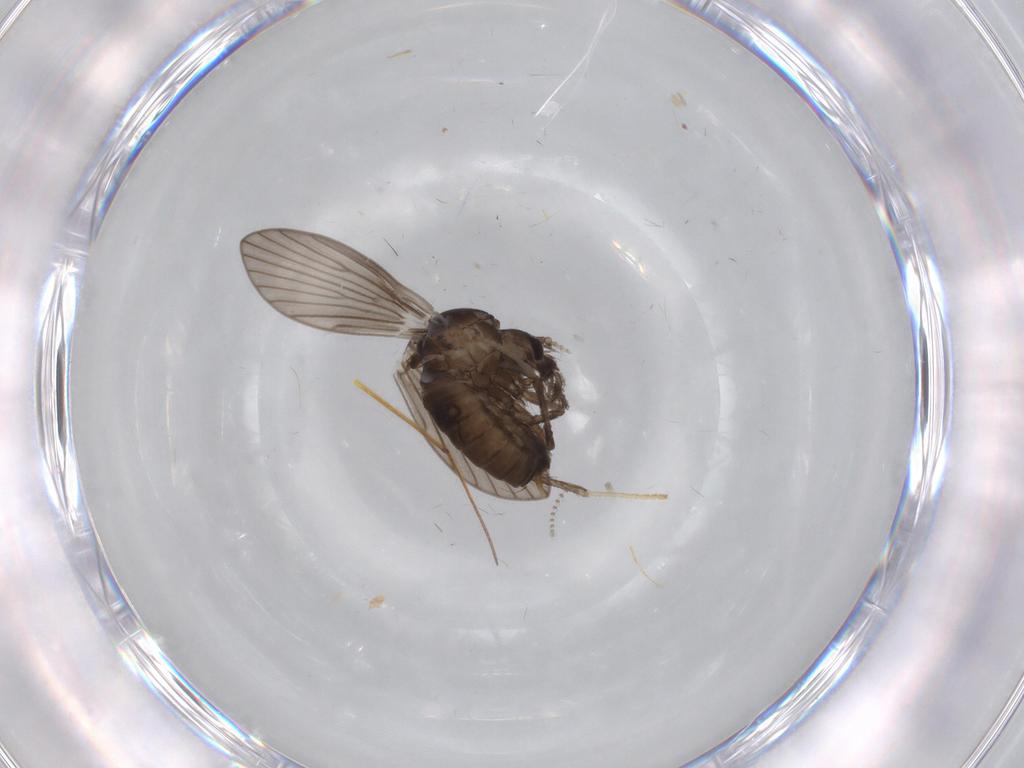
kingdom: Animalia
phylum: Arthropoda
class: Insecta
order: Diptera
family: Psychodidae
